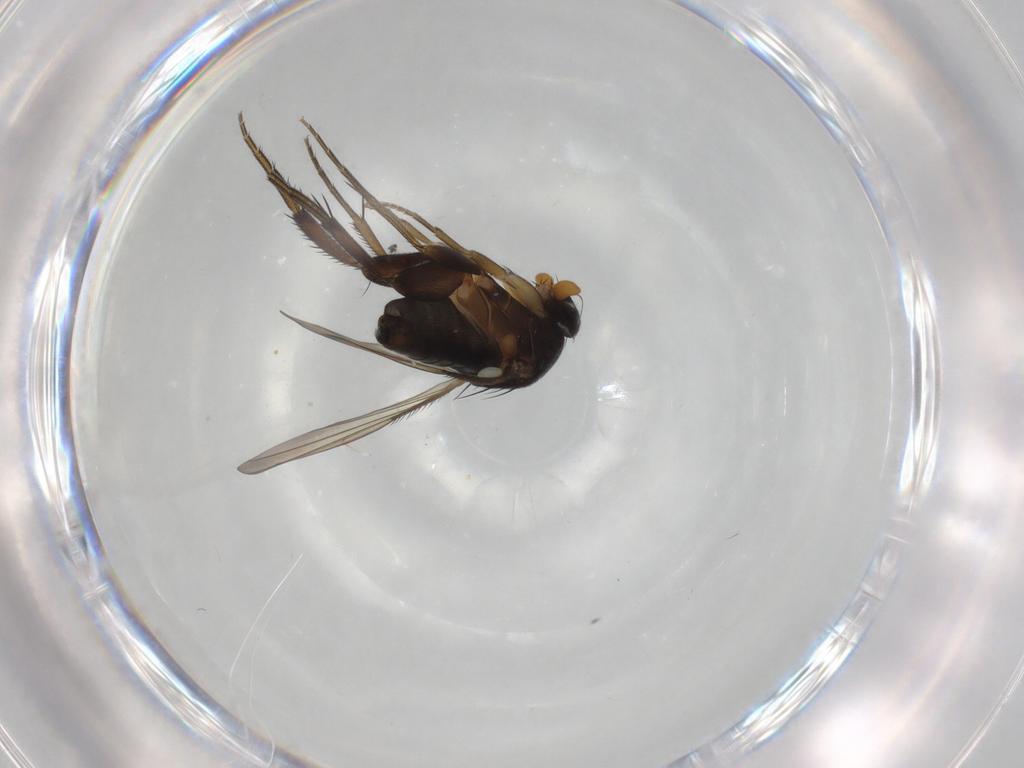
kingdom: Animalia
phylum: Arthropoda
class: Insecta
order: Diptera
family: Phoridae
